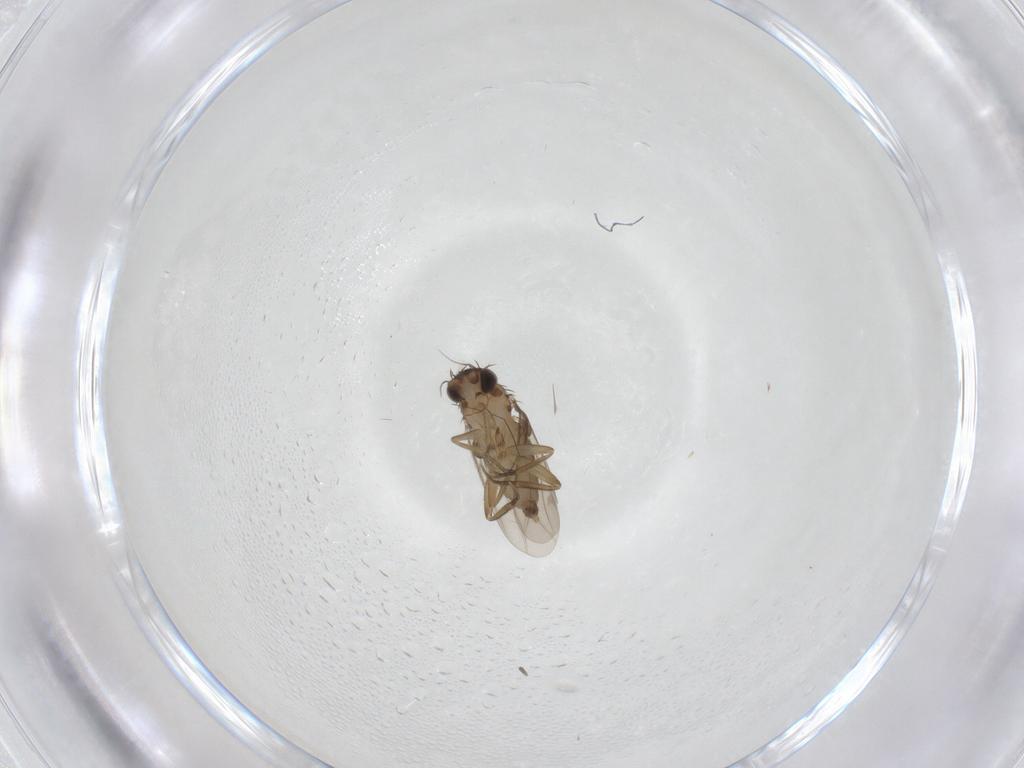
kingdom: Animalia
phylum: Arthropoda
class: Insecta
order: Diptera
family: Phoridae
